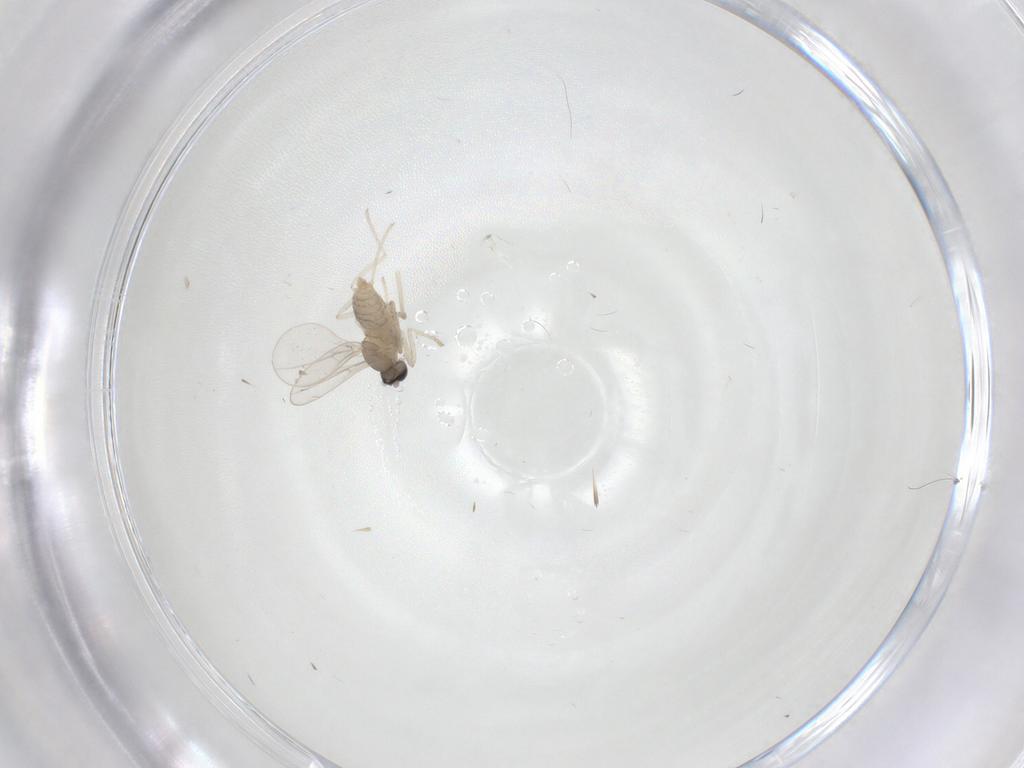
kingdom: Animalia
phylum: Arthropoda
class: Insecta
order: Diptera
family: Cecidomyiidae
